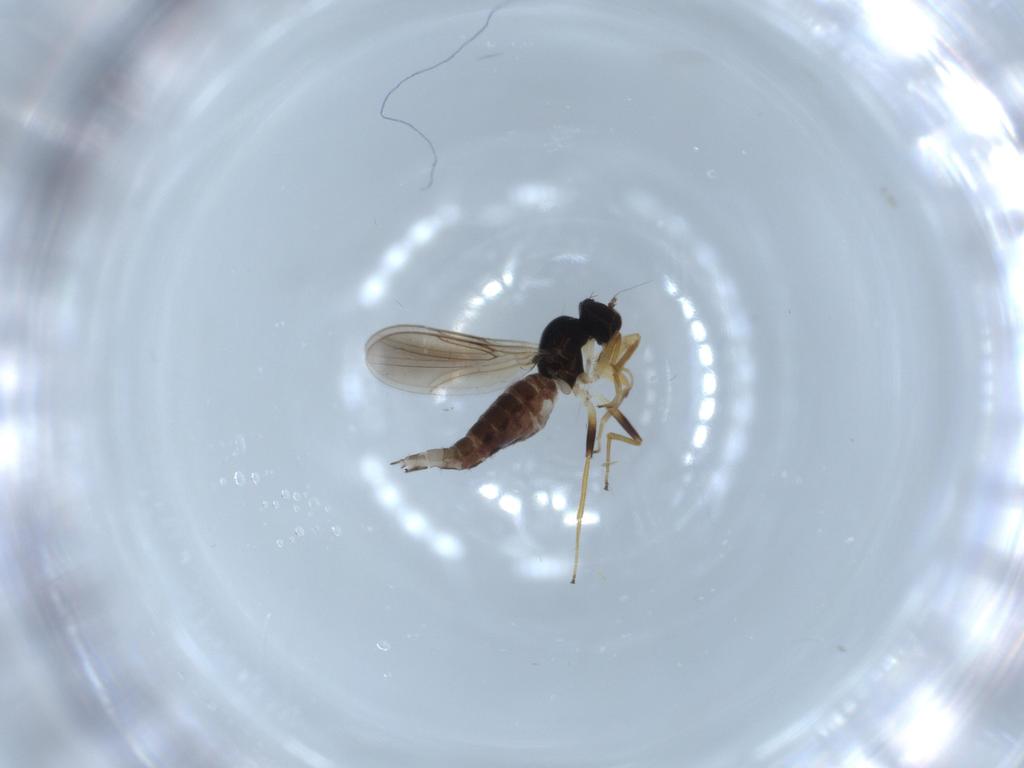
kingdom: Animalia
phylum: Arthropoda
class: Insecta
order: Diptera
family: Hybotidae
